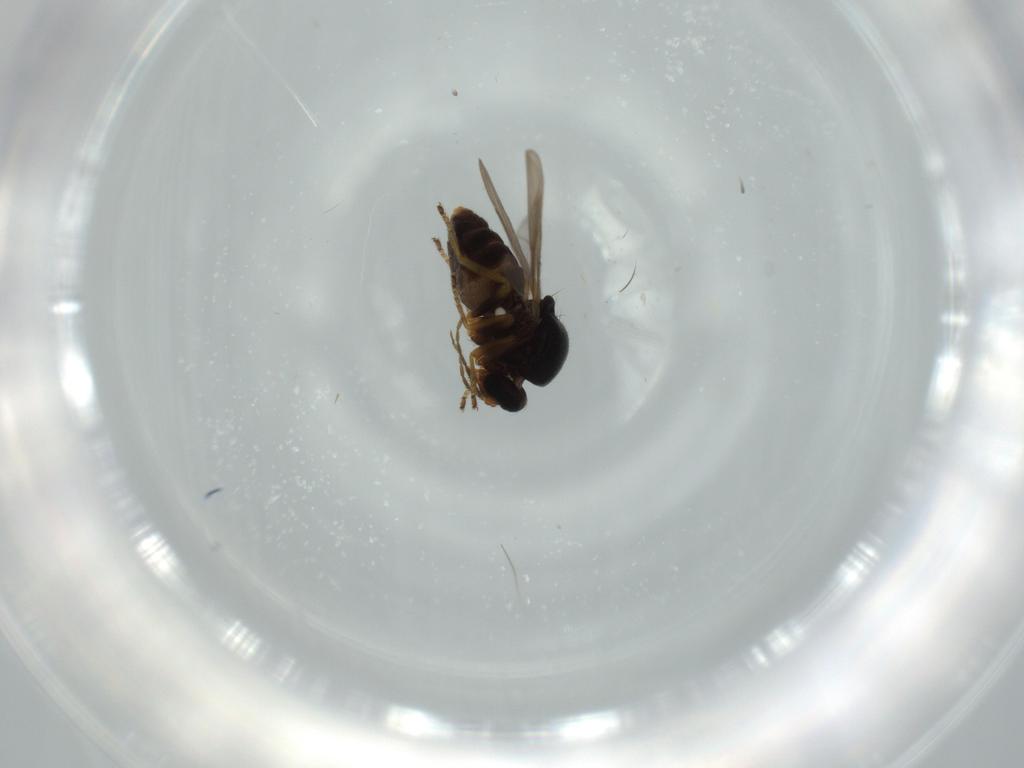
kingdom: Animalia
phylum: Arthropoda
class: Insecta
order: Diptera
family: Ceratopogonidae
